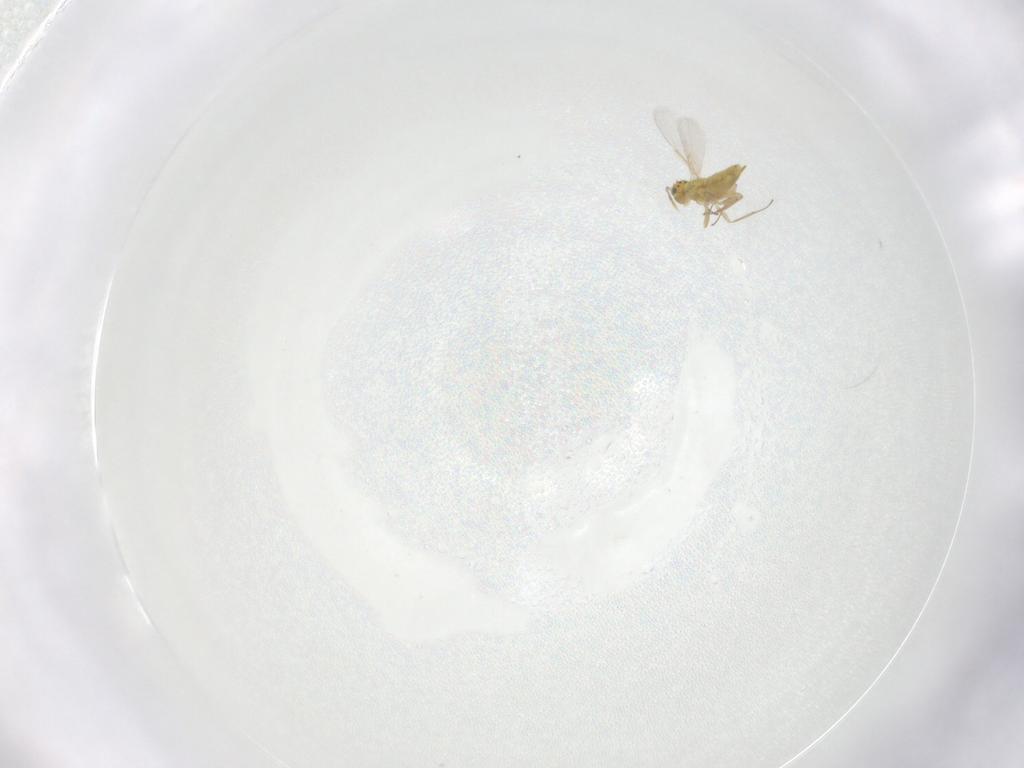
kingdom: Animalia
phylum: Arthropoda
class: Insecta
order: Hymenoptera
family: Aphelinidae
